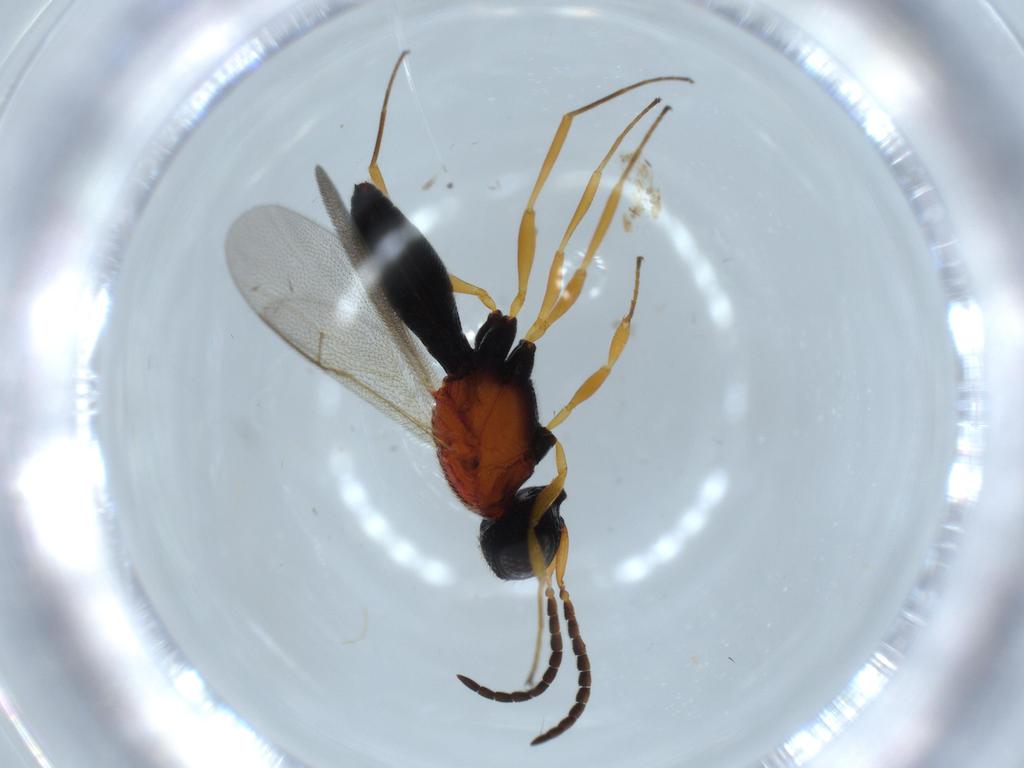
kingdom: Animalia
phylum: Arthropoda
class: Insecta
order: Hymenoptera
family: Scelionidae
